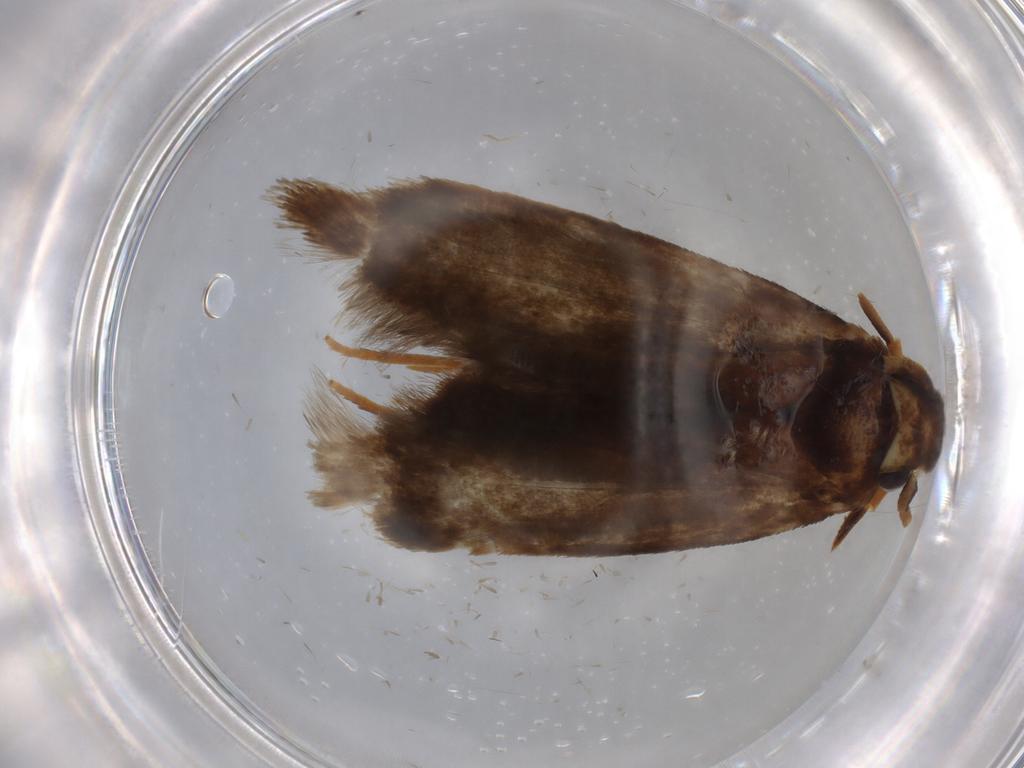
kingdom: Animalia
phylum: Arthropoda
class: Insecta
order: Lepidoptera
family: Tineidae
